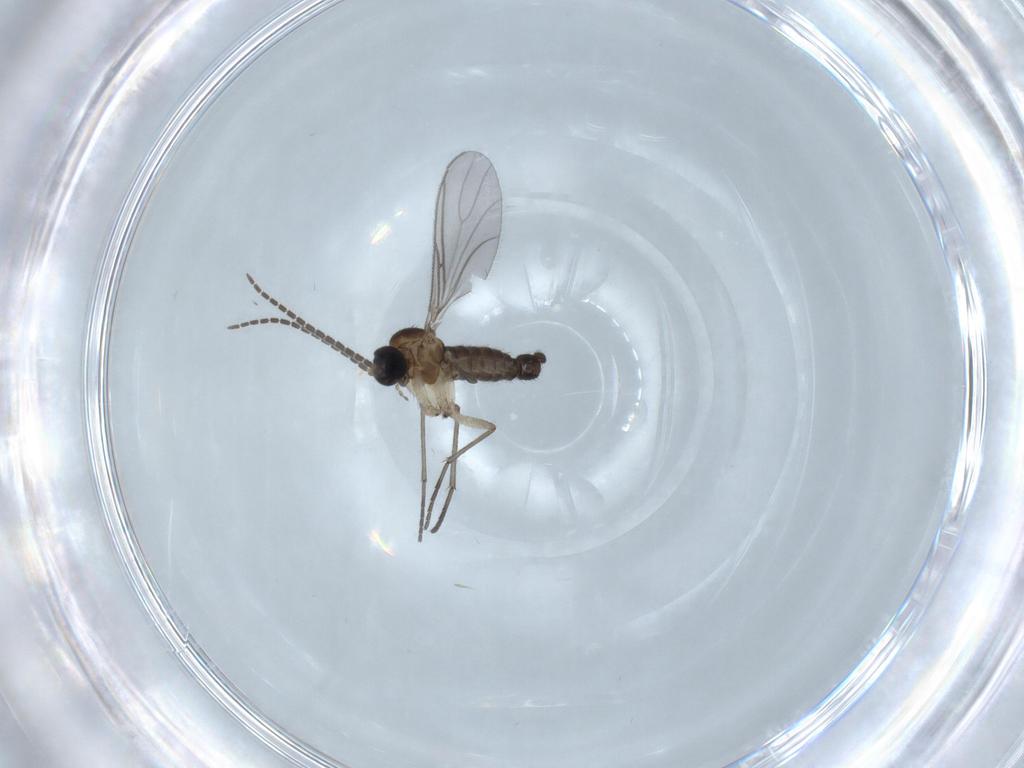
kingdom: Animalia
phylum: Arthropoda
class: Insecta
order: Diptera
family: Sciaridae
